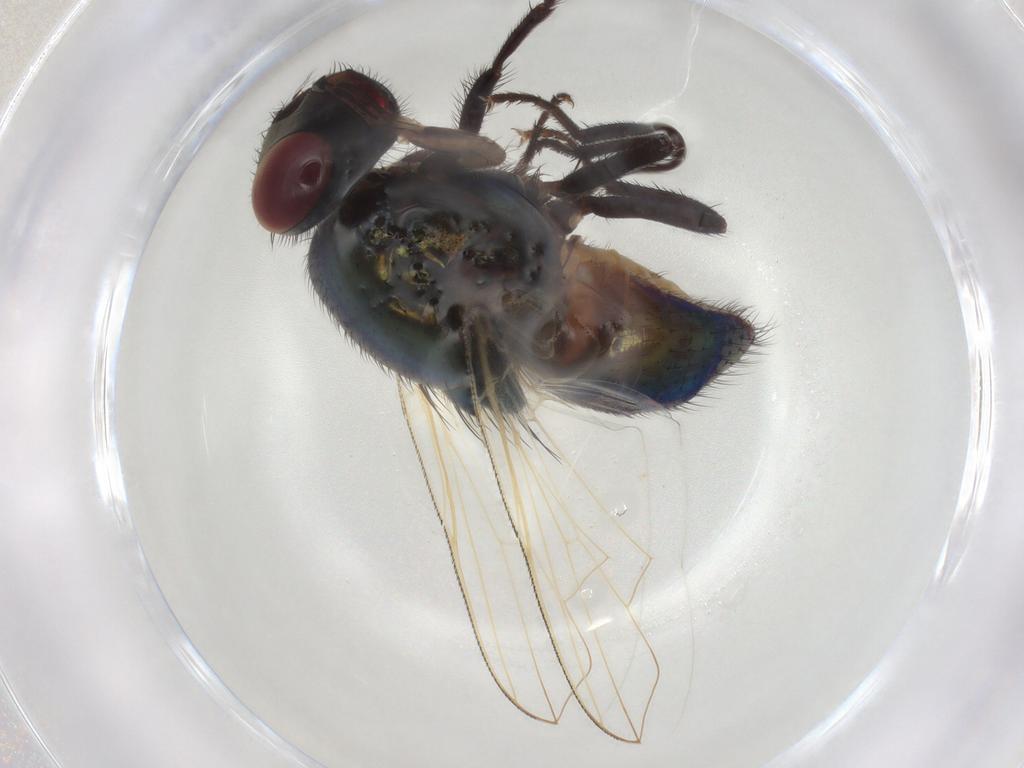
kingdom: Animalia
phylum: Arthropoda
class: Insecta
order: Diptera
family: Muscidae
